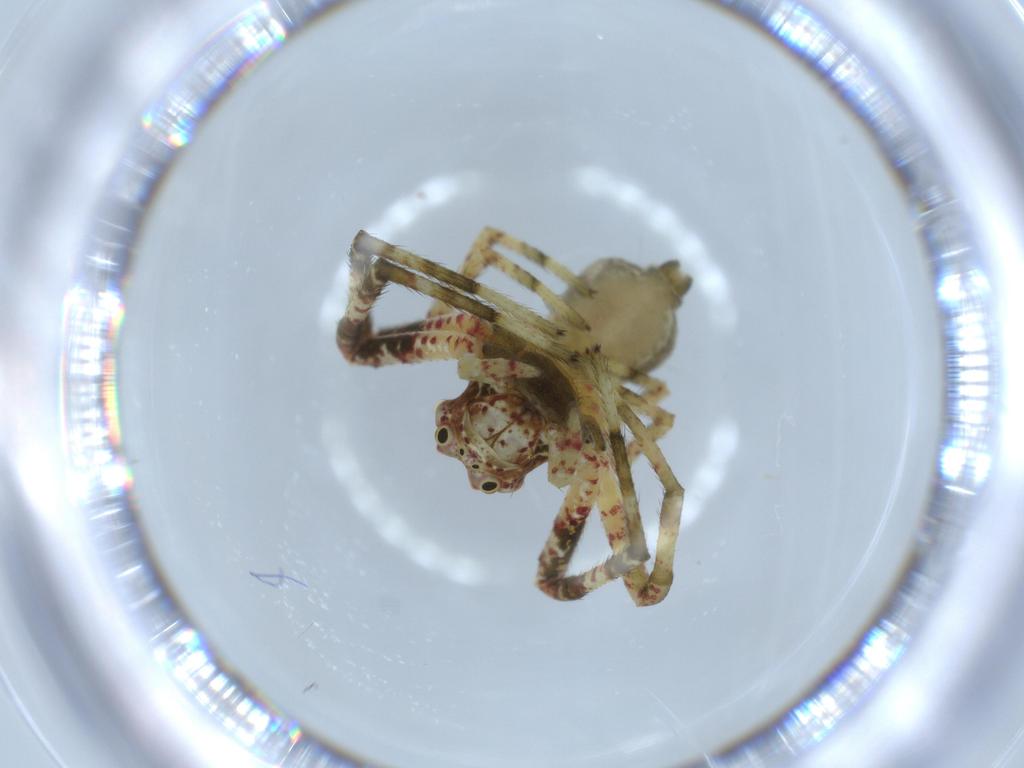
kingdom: Animalia
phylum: Arthropoda
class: Arachnida
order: Araneae
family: Thomisidae
